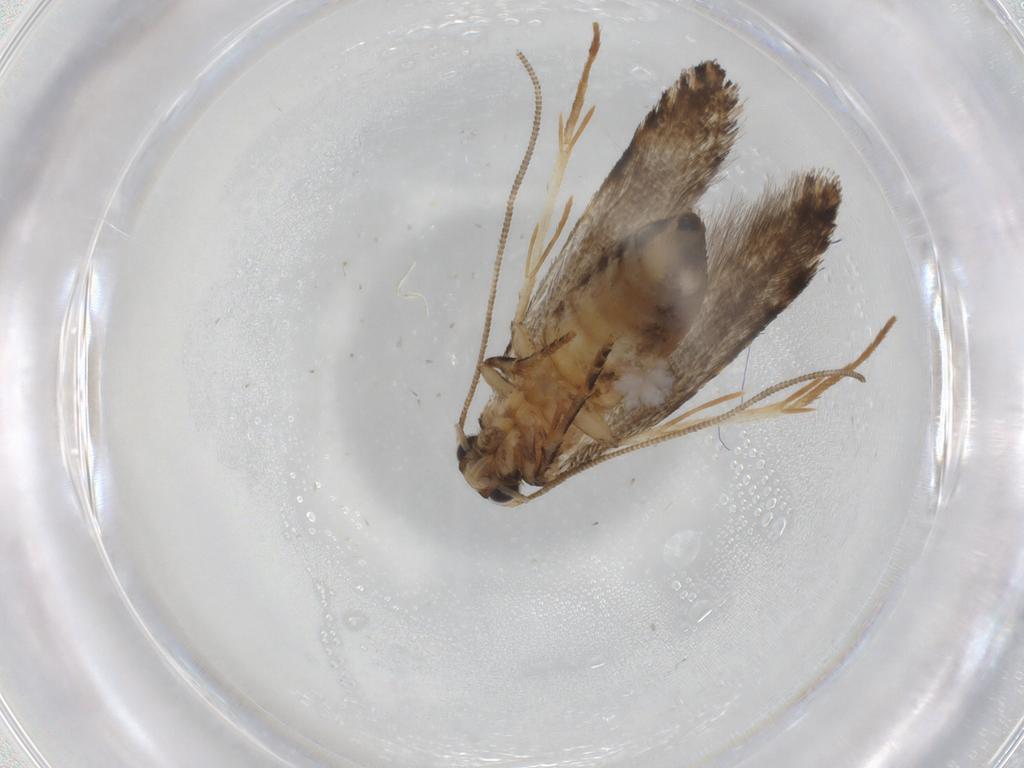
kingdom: Animalia
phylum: Arthropoda
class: Insecta
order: Lepidoptera
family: Tineidae
